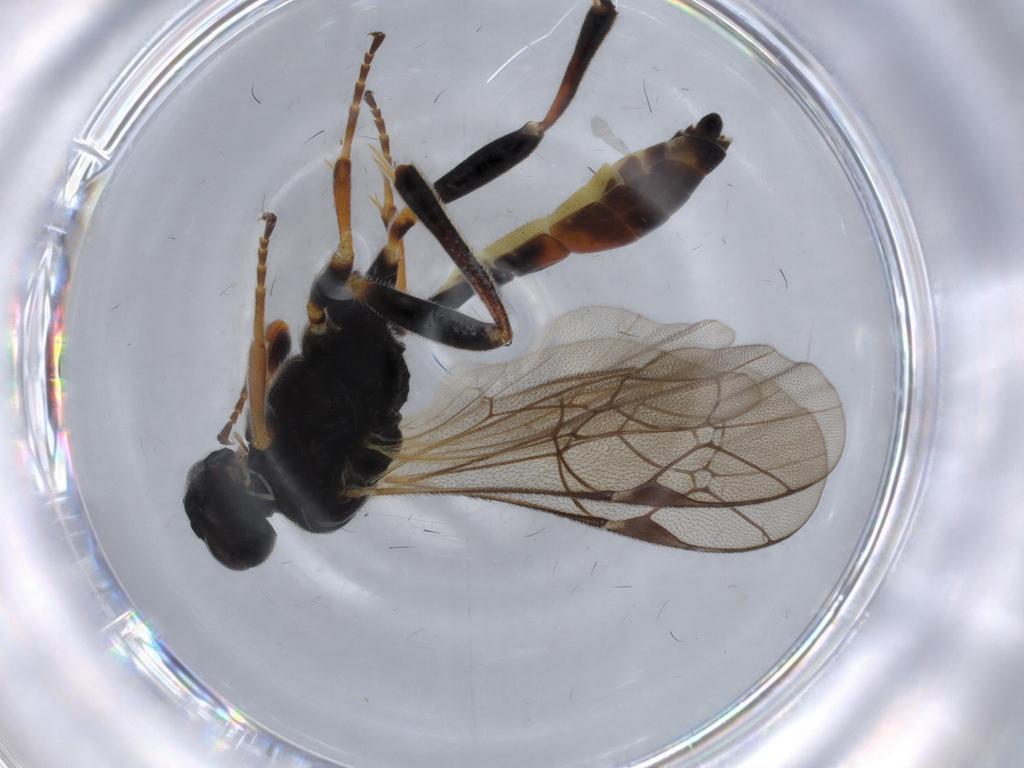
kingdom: Animalia
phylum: Arthropoda
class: Insecta
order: Hymenoptera
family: Ichneumonidae
